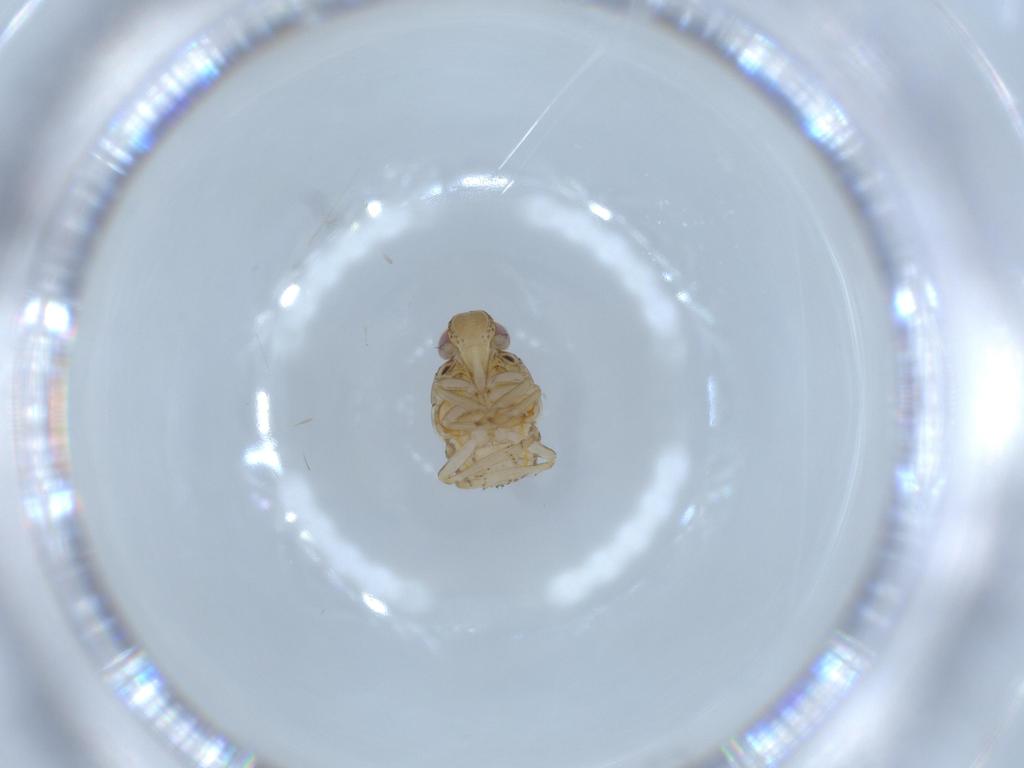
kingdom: Animalia
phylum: Arthropoda
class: Insecta
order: Hemiptera
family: Issidae
